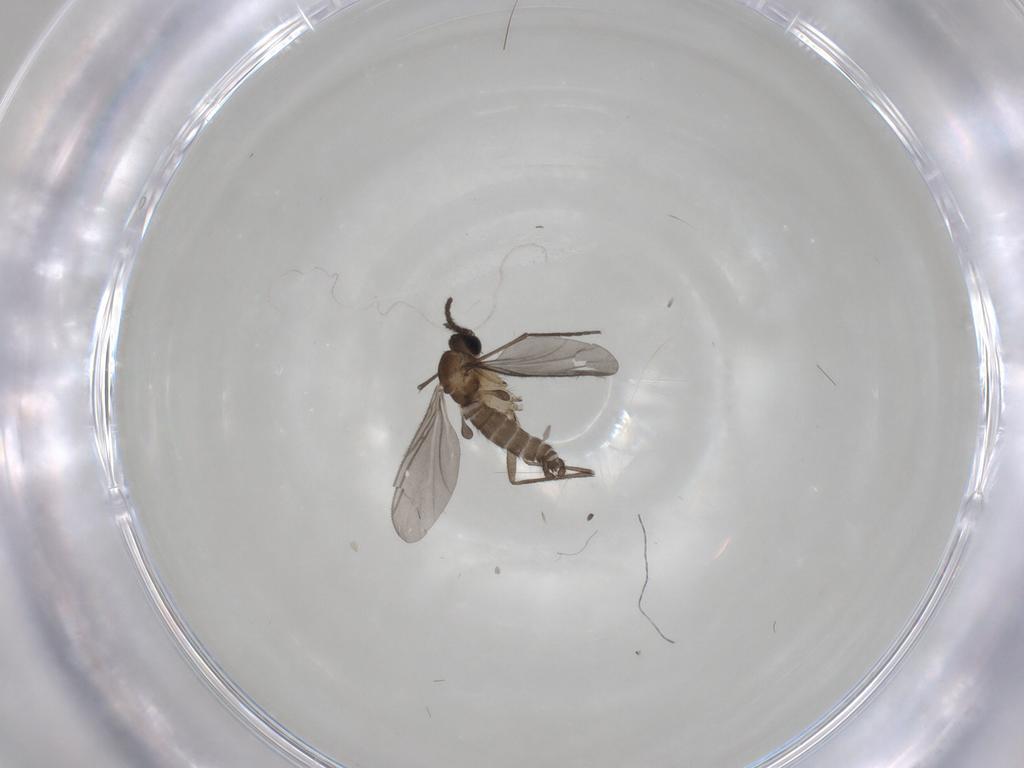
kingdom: Animalia
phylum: Arthropoda
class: Insecta
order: Diptera
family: Sciaridae
